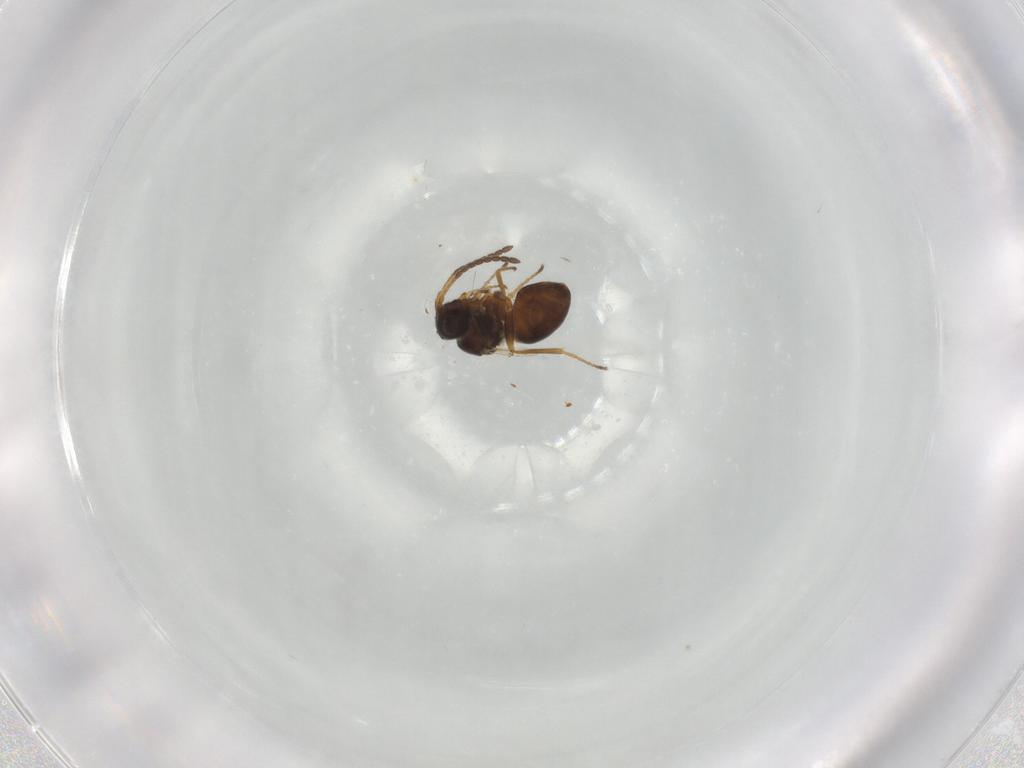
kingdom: Animalia
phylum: Arthropoda
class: Insecta
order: Hymenoptera
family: Figitidae
